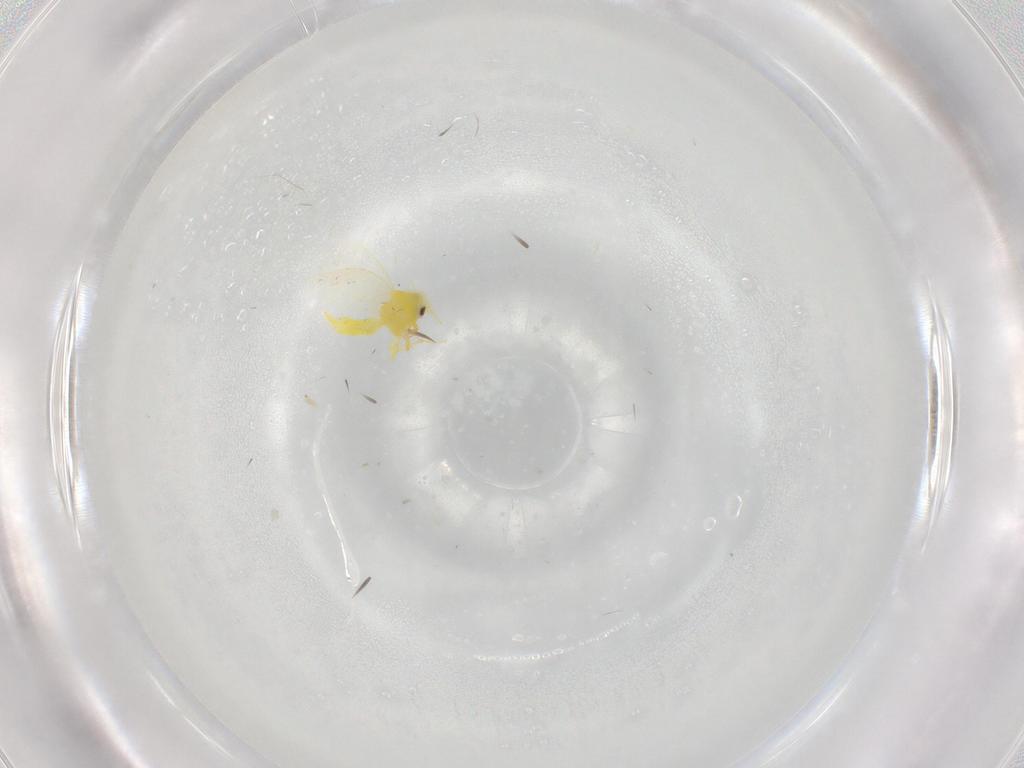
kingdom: Animalia
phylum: Arthropoda
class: Insecta
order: Hemiptera
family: Aleyrodidae
